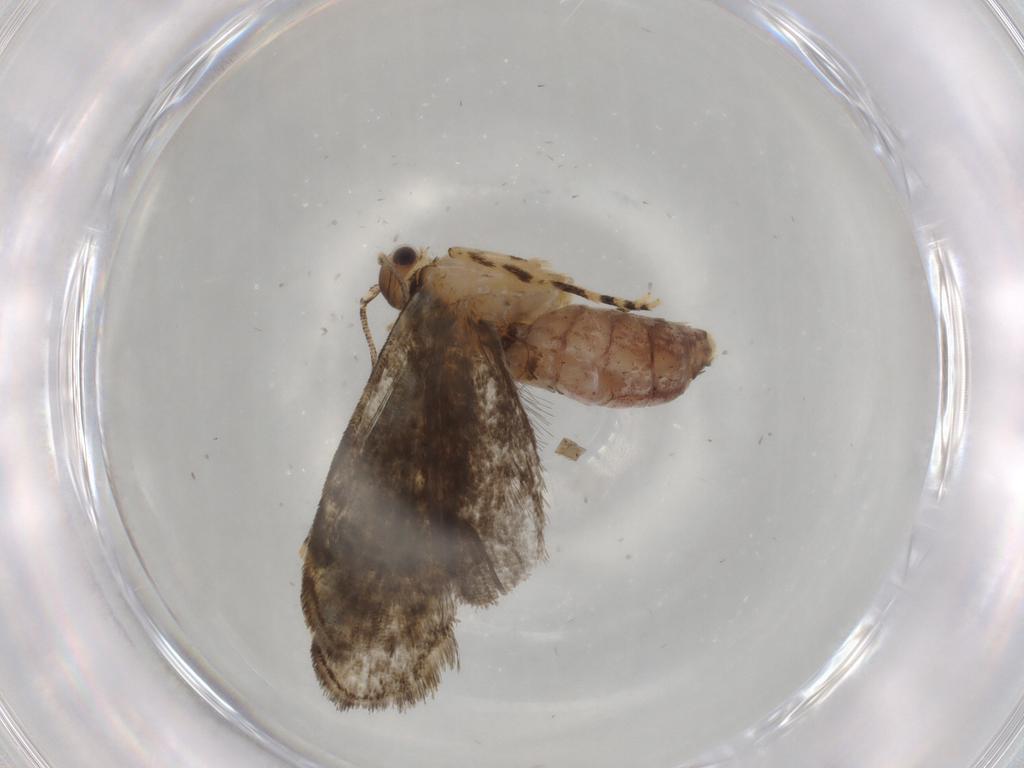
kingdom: Animalia
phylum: Arthropoda
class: Insecta
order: Lepidoptera
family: Tineidae
